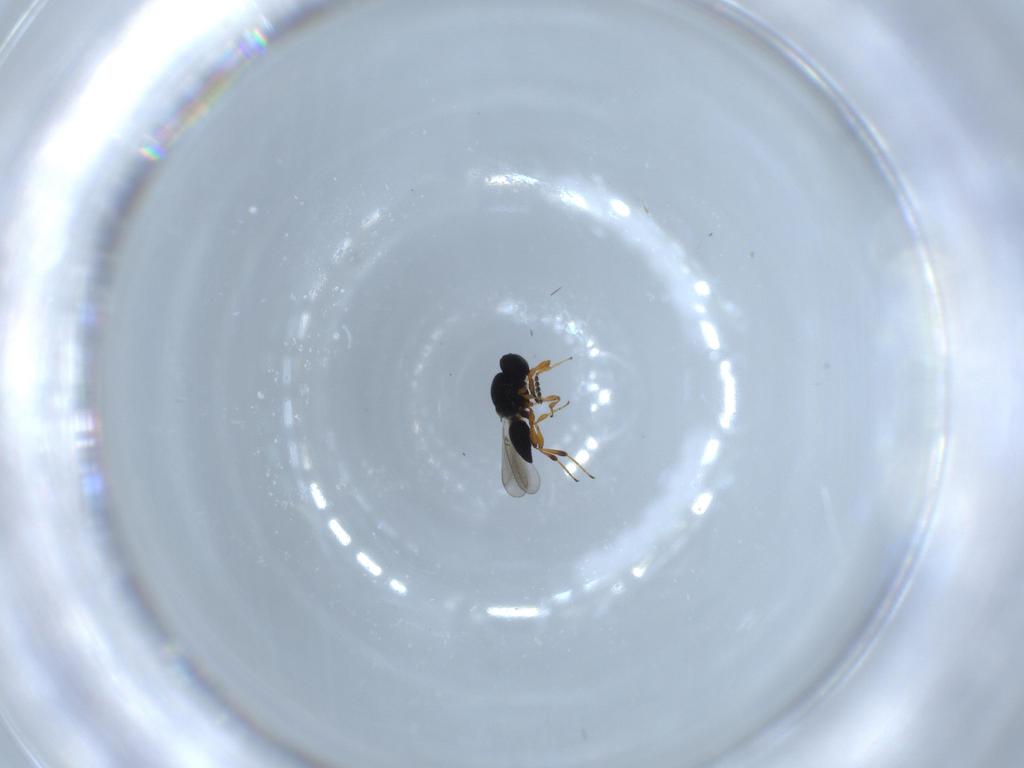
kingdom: Animalia
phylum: Arthropoda
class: Insecta
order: Hymenoptera
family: Platygastridae
